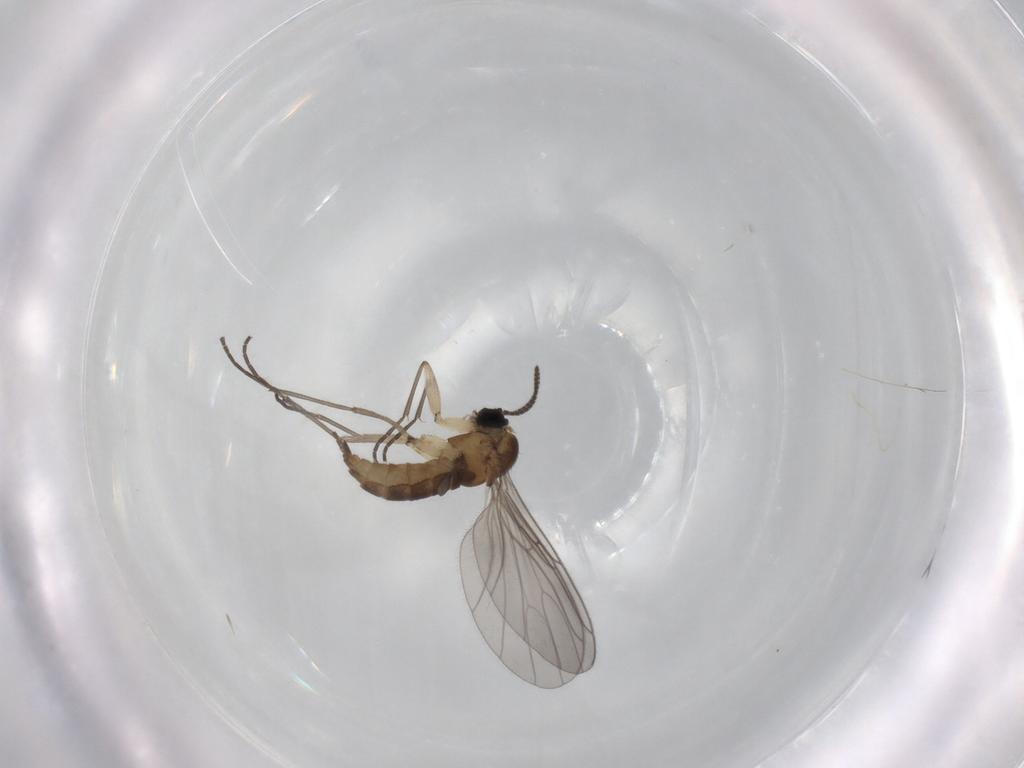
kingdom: Animalia
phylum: Arthropoda
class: Insecta
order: Diptera
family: Sciaridae
